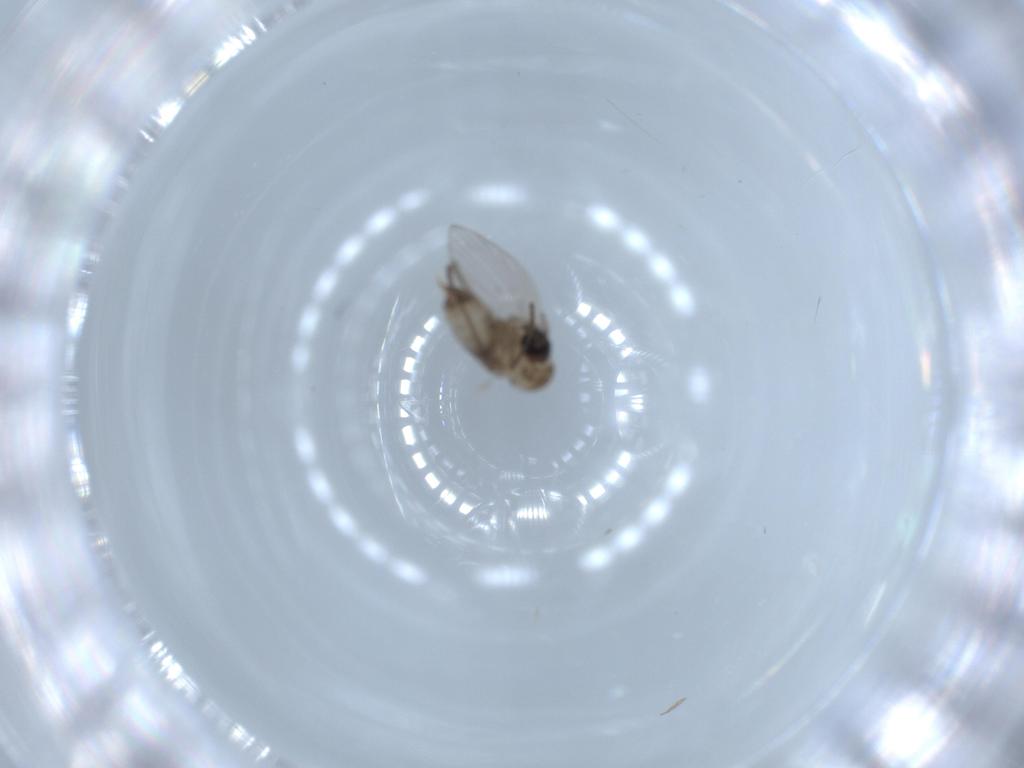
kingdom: Animalia
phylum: Arthropoda
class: Insecta
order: Diptera
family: Psychodidae
